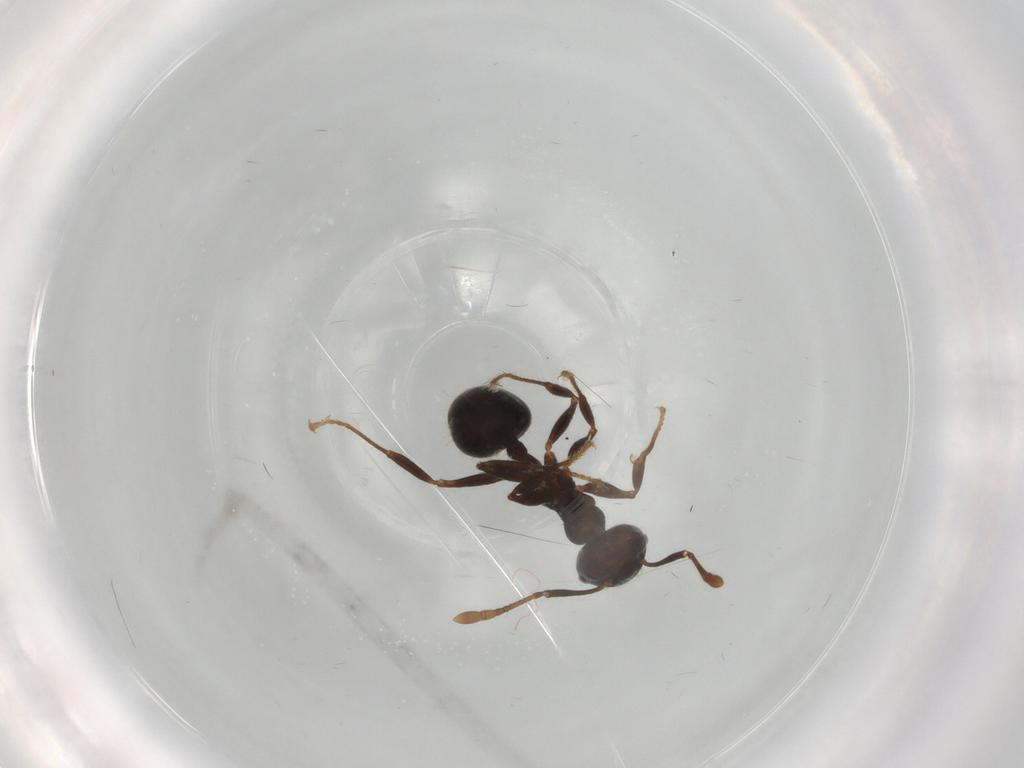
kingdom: Animalia
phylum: Arthropoda
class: Insecta
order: Hymenoptera
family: Formicidae
